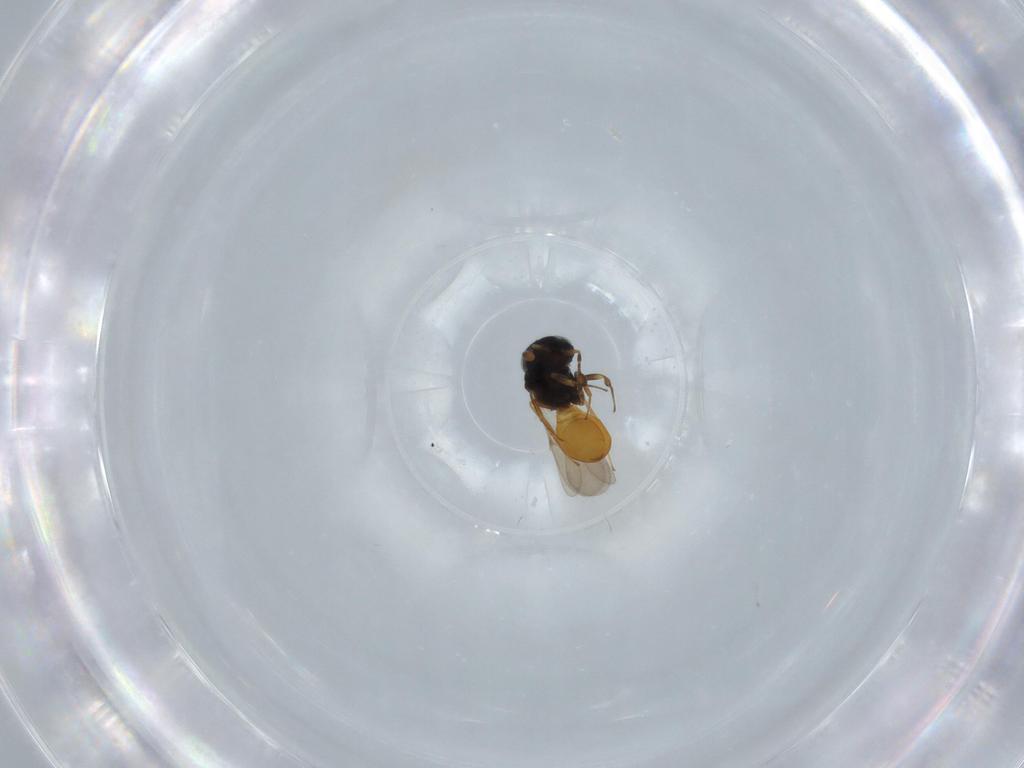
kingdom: Animalia
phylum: Arthropoda
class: Insecta
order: Hymenoptera
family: Scelionidae
